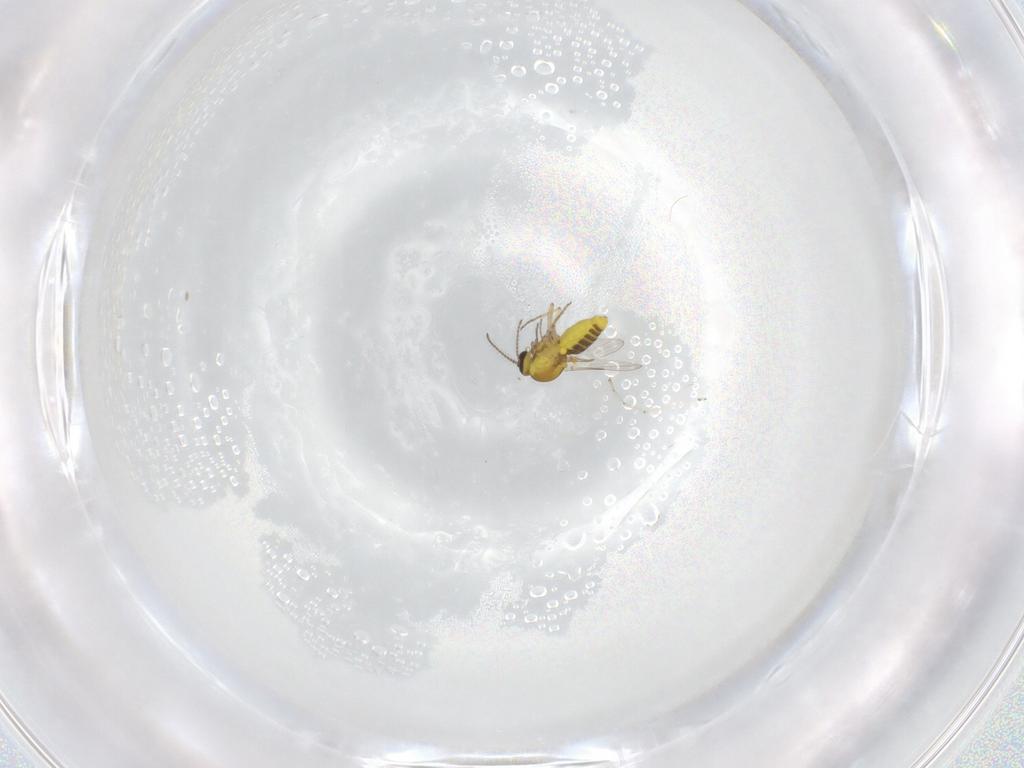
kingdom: Animalia
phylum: Arthropoda
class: Insecta
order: Diptera
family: Ceratopogonidae
